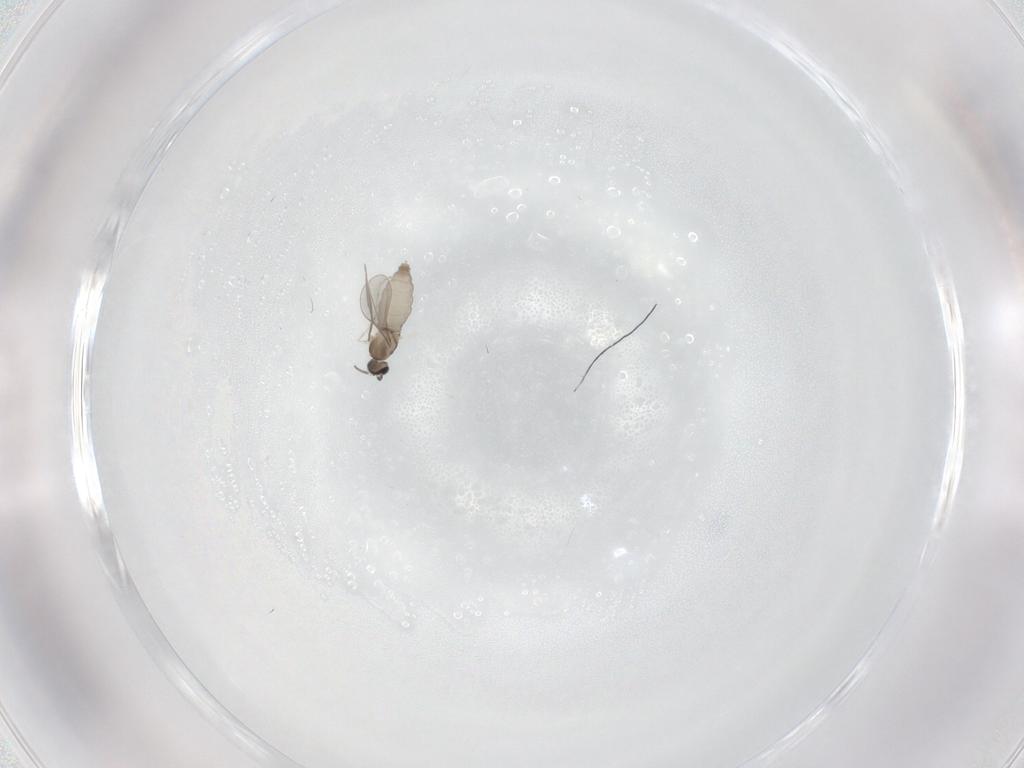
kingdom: Animalia
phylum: Arthropoda
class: Insecta
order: Diptera
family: Cecidomyiidae
